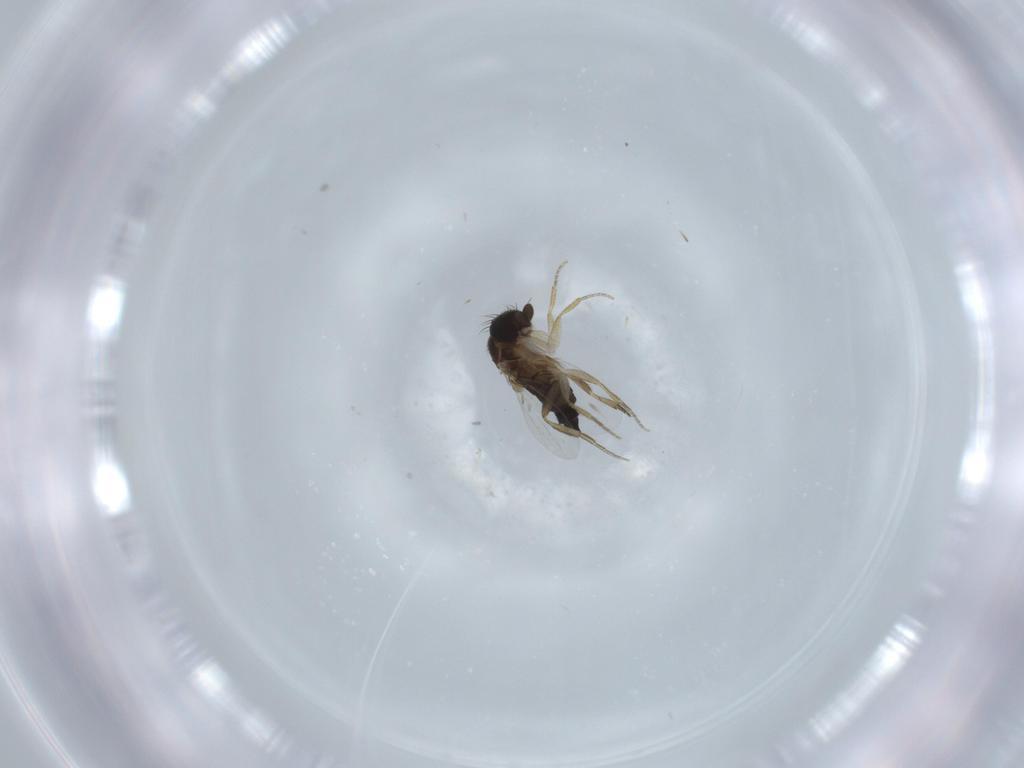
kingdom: Animalia
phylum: Arthropoda
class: Insecta
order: Diptera
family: Phoridae
